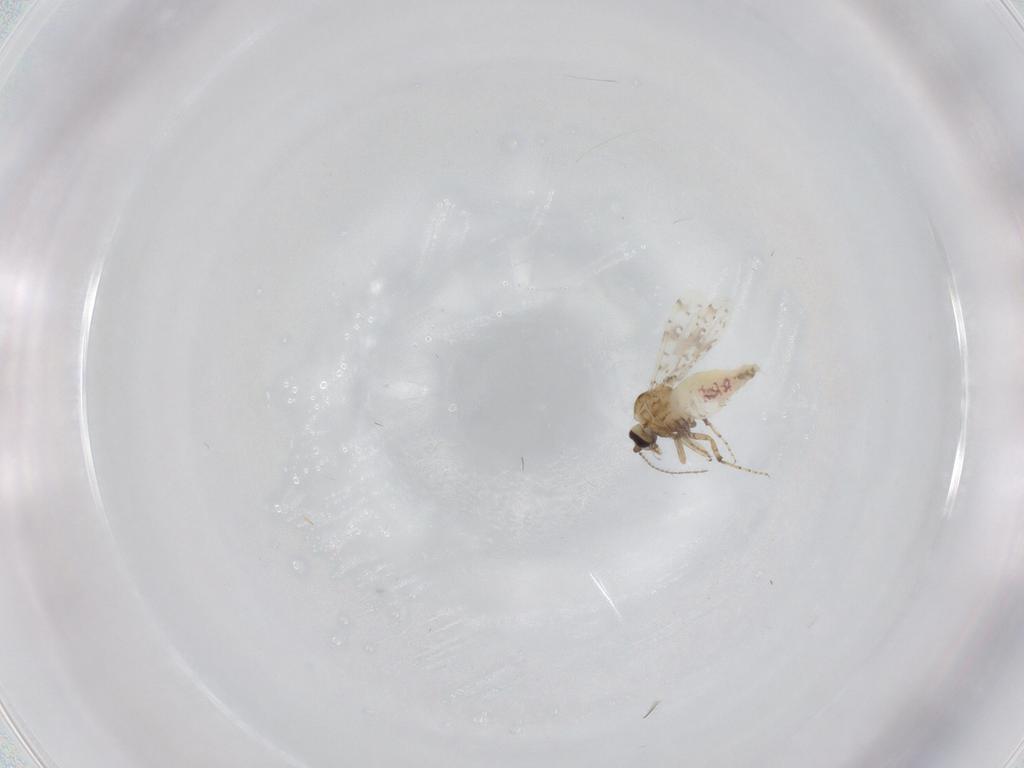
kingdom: Animalia
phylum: Arthropoda
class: Insecta
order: Diptera
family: Ceratopogonidae
